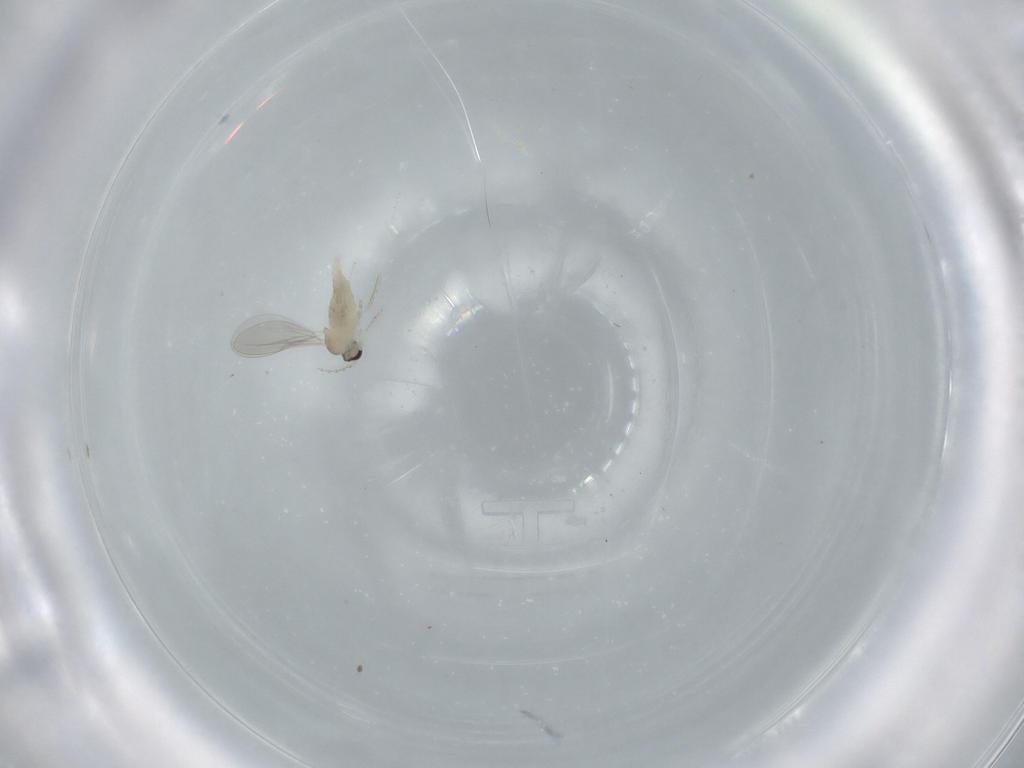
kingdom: Animalia
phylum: Arthropoda
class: Insecta
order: Diptera
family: Cecidomyiidae
